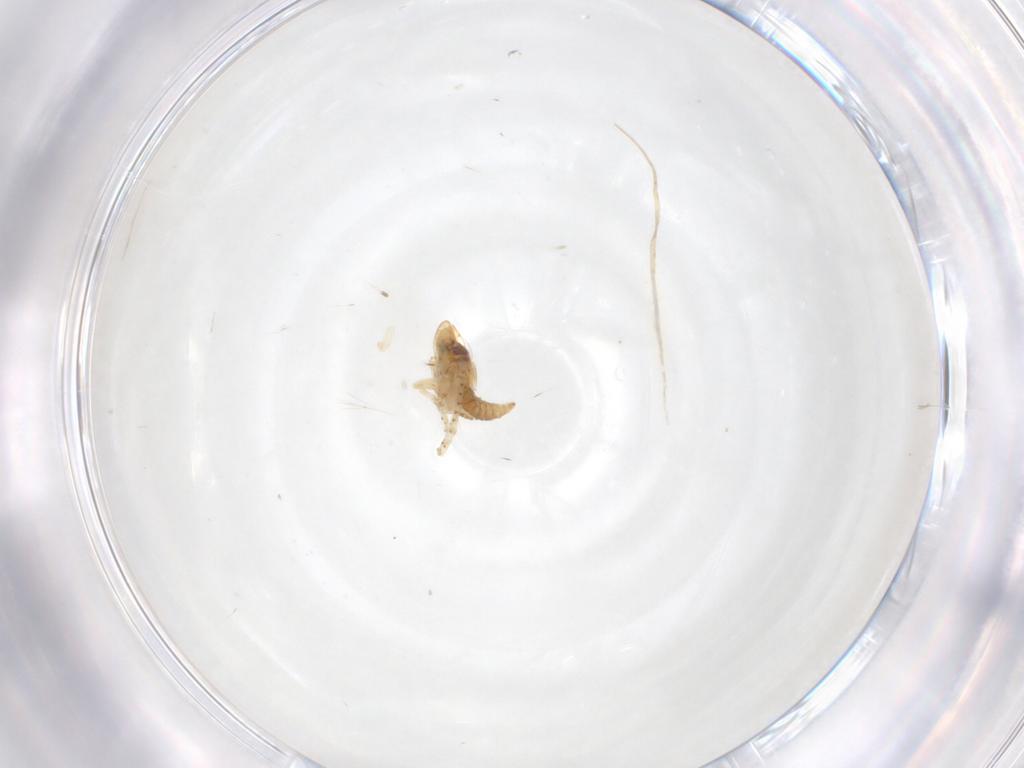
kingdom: Animalia
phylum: Arthropoda
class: Insecta
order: Hemiptera
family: Cicadellidae
